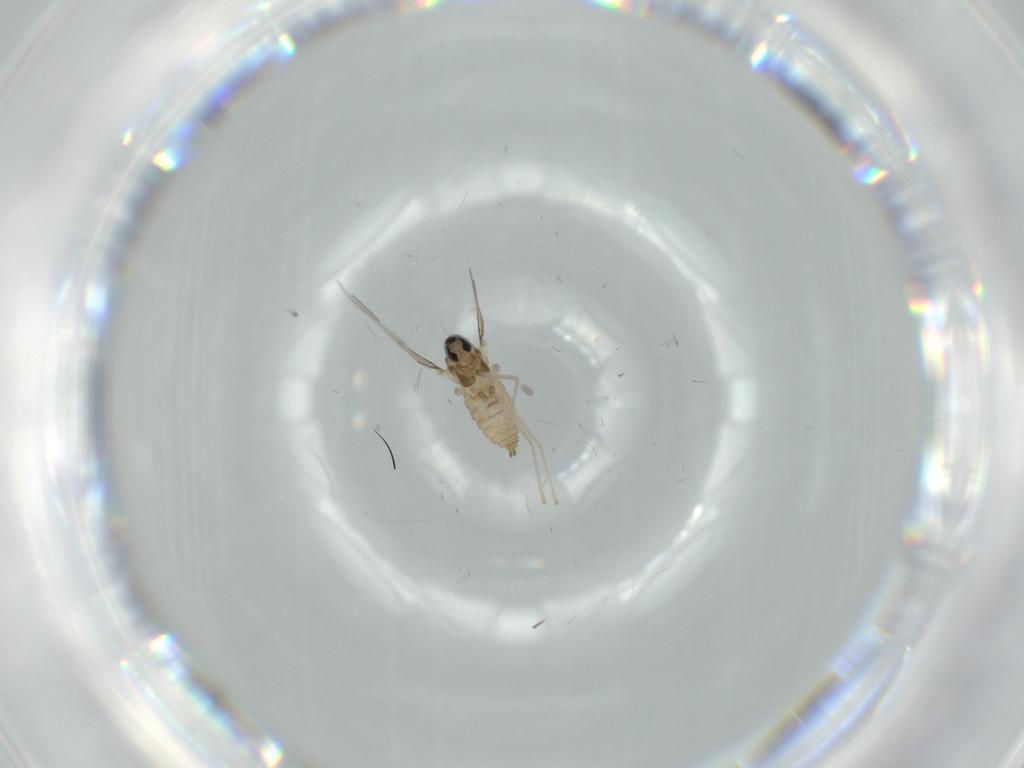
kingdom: Animalia
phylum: Arthropoda
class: Insecta
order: Diptera
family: Cecidomyiidae
